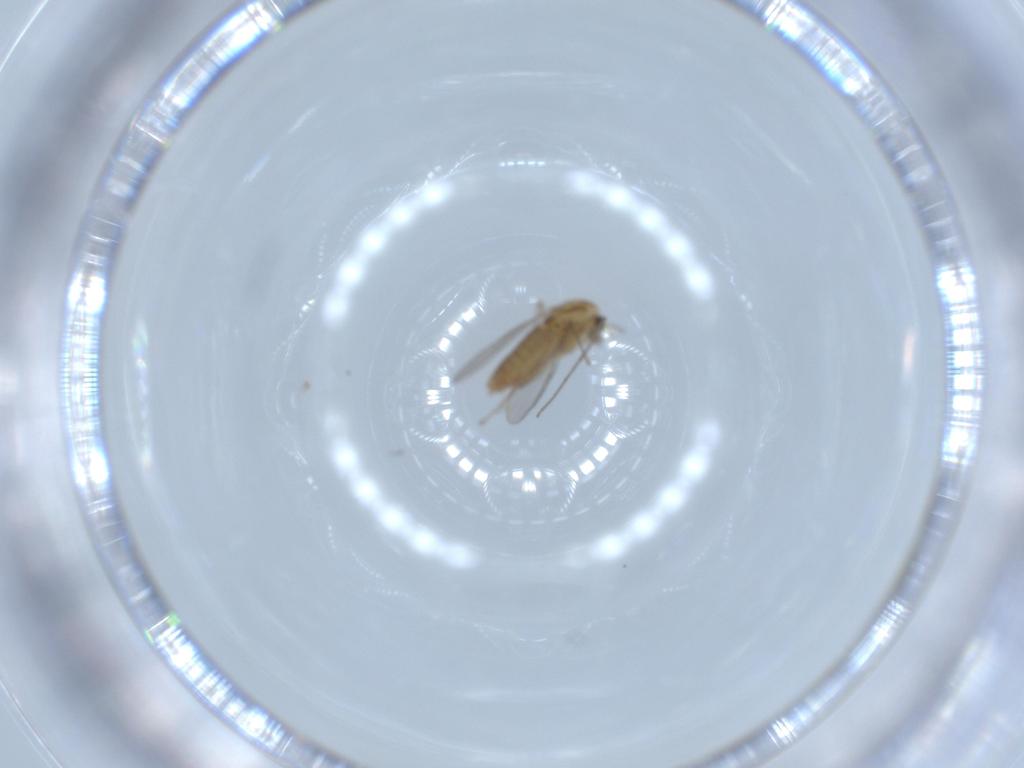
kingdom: Animalia
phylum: Arthropoda
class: Insecta
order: Diptera
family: Chironomidae
